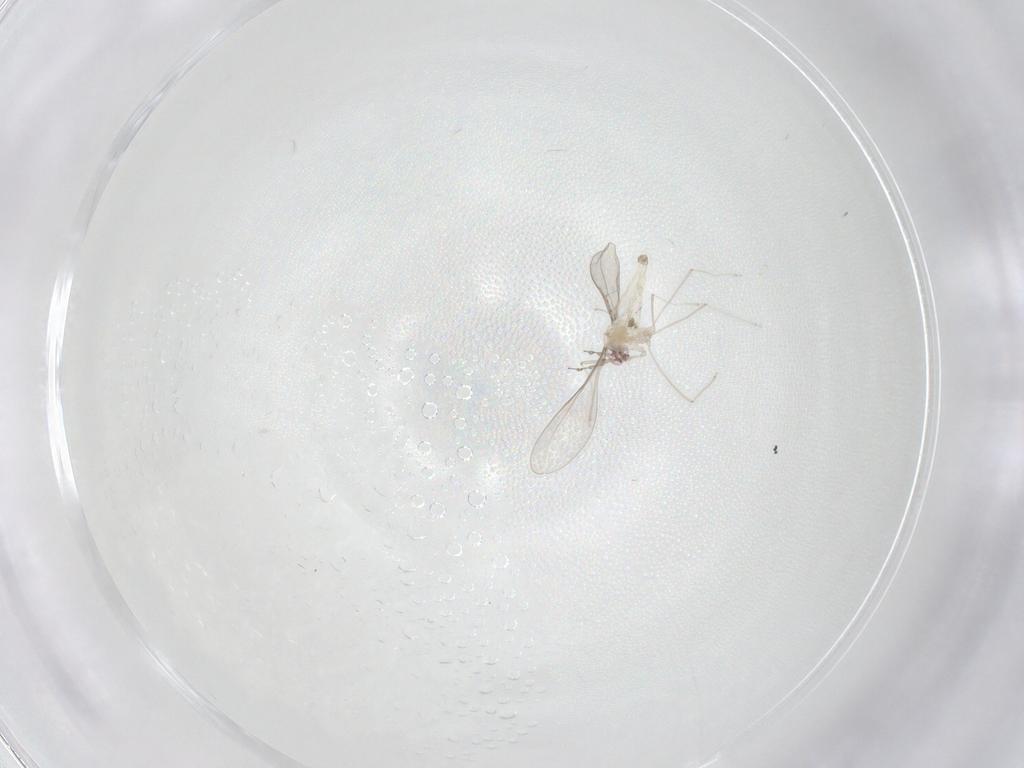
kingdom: Animalia
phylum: Arthropoda
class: Insecta
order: Diptera
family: Cecidomyiidae
